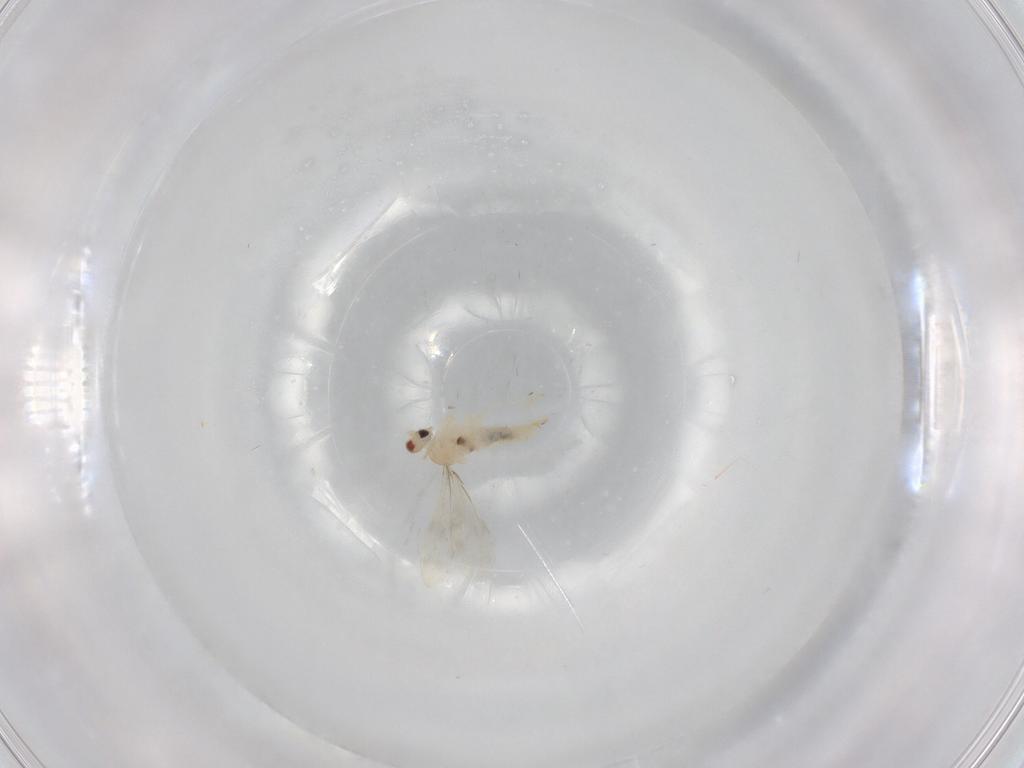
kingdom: Animalia
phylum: Arthropoda
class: Insecta
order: Diptera
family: Cecidomyiidae
